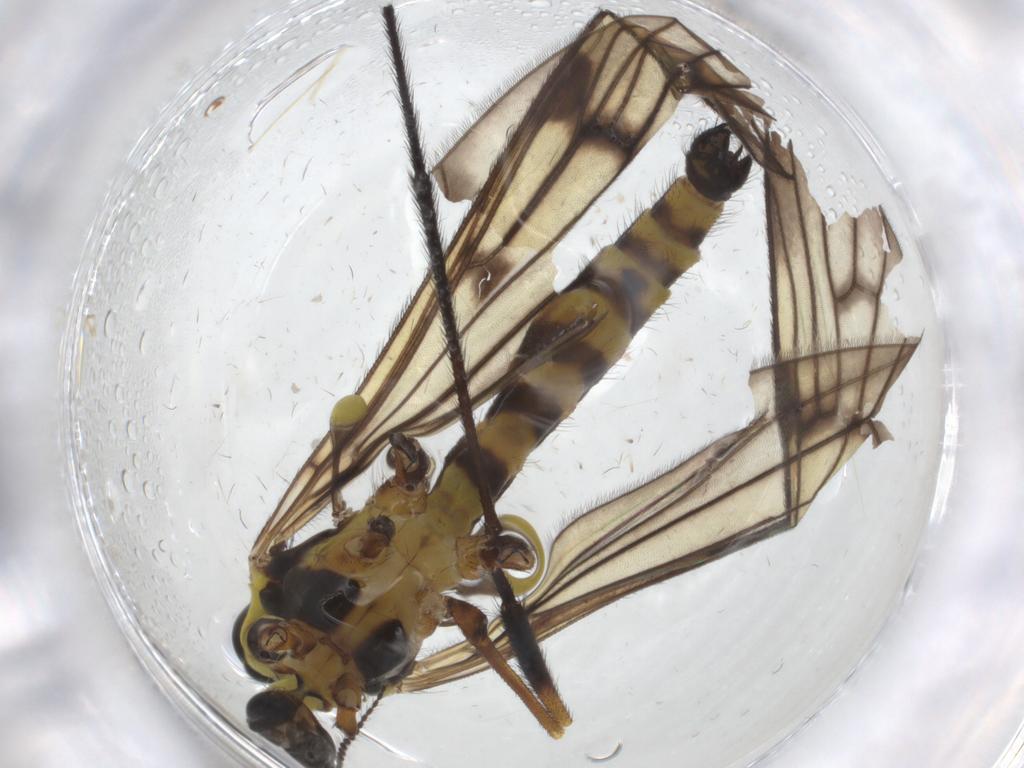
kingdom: Animalia
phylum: Arthropoda
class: Insecta
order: Diptera
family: Limoniidae
